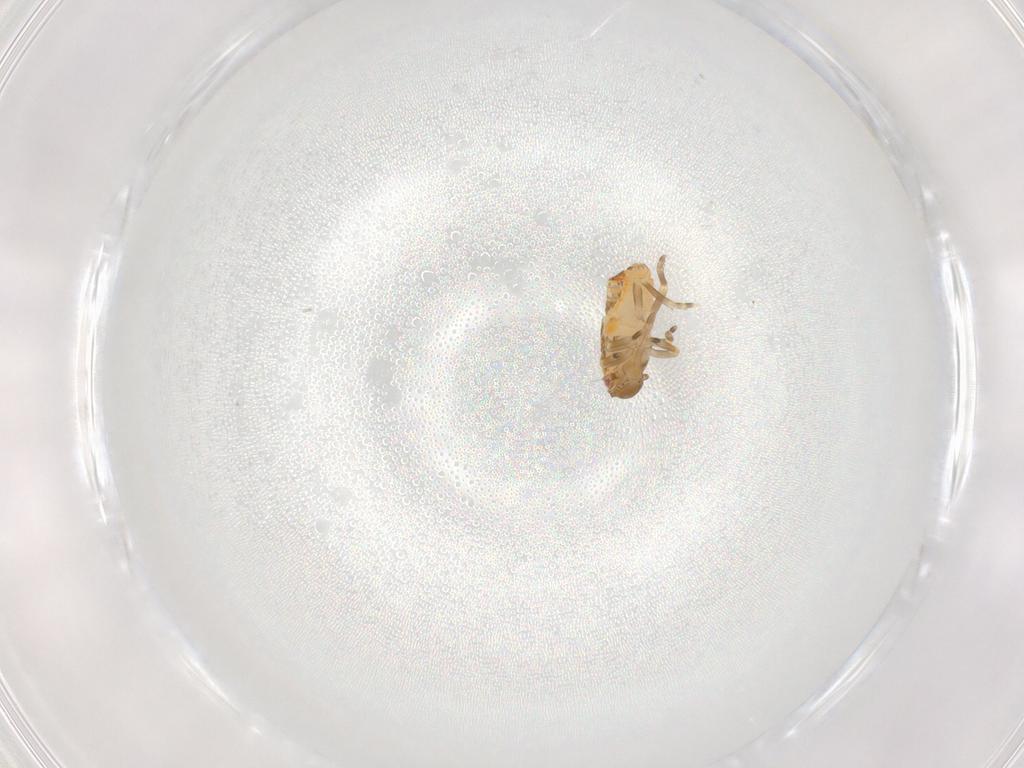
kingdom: Animalia
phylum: Arthropoda
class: Insecta
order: Hemiptera
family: Flatidae
